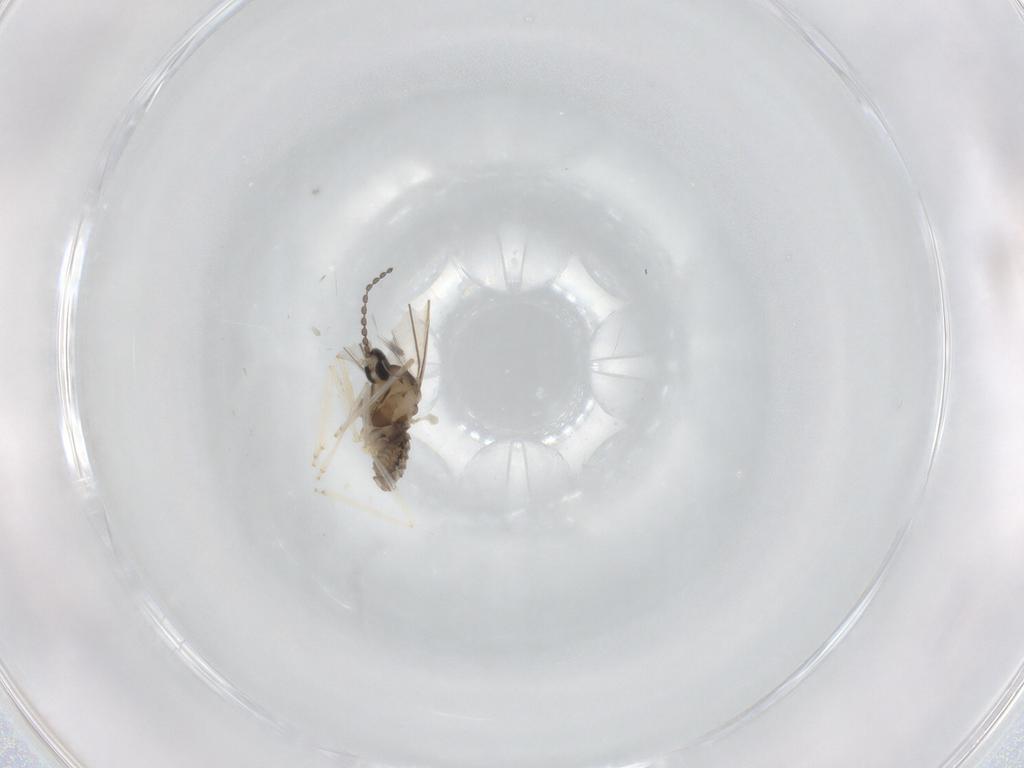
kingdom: Animalia
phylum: Arthropoda
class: Insecta
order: Diptera
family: Cecidomyiidae
